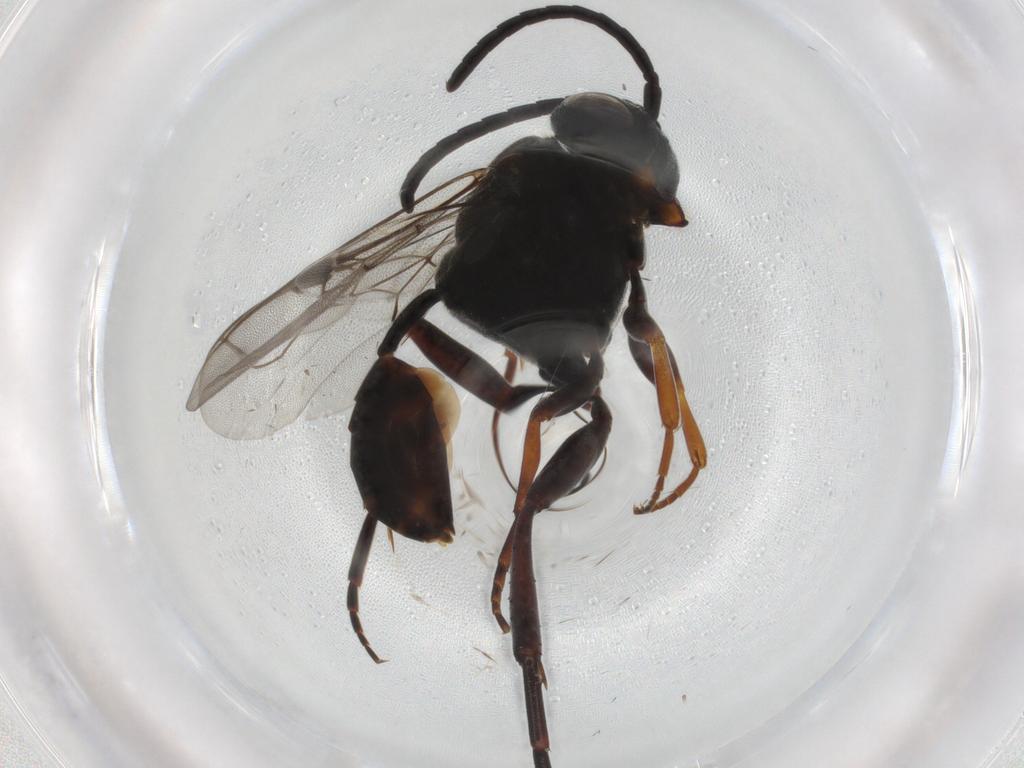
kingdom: Animalia
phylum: Arthropoda
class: Insecta
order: Hymenoptera
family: Evaniidae
